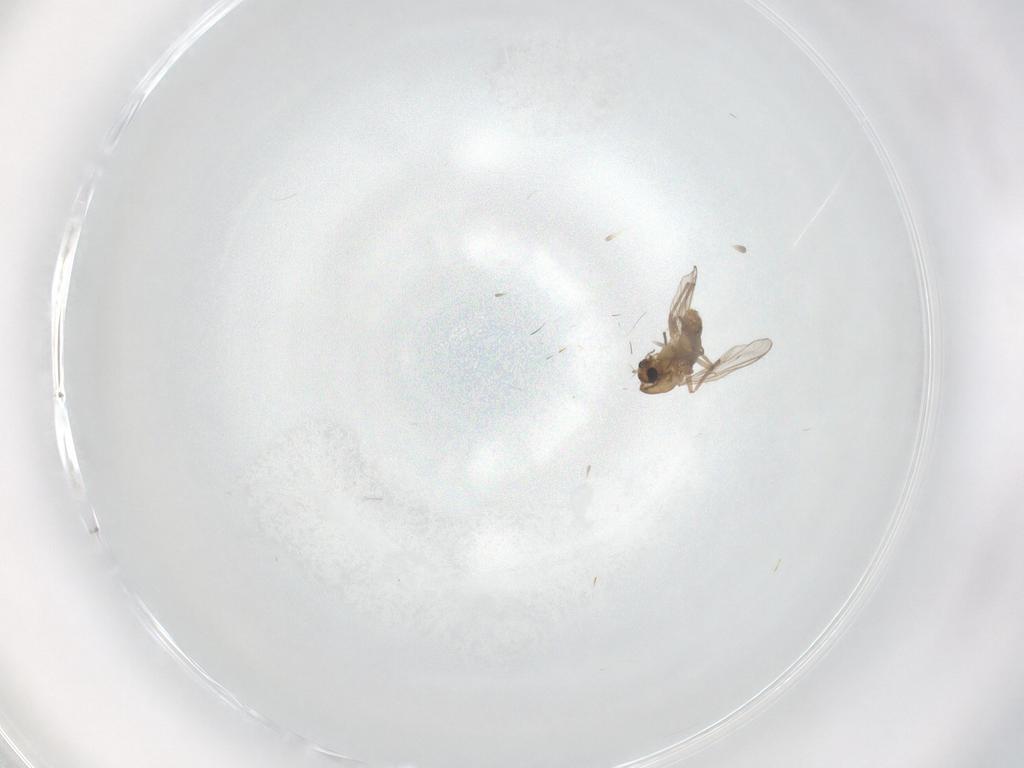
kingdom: Animalia
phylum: Arthropoda
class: Insecta
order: Diptera
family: Chironomidae
